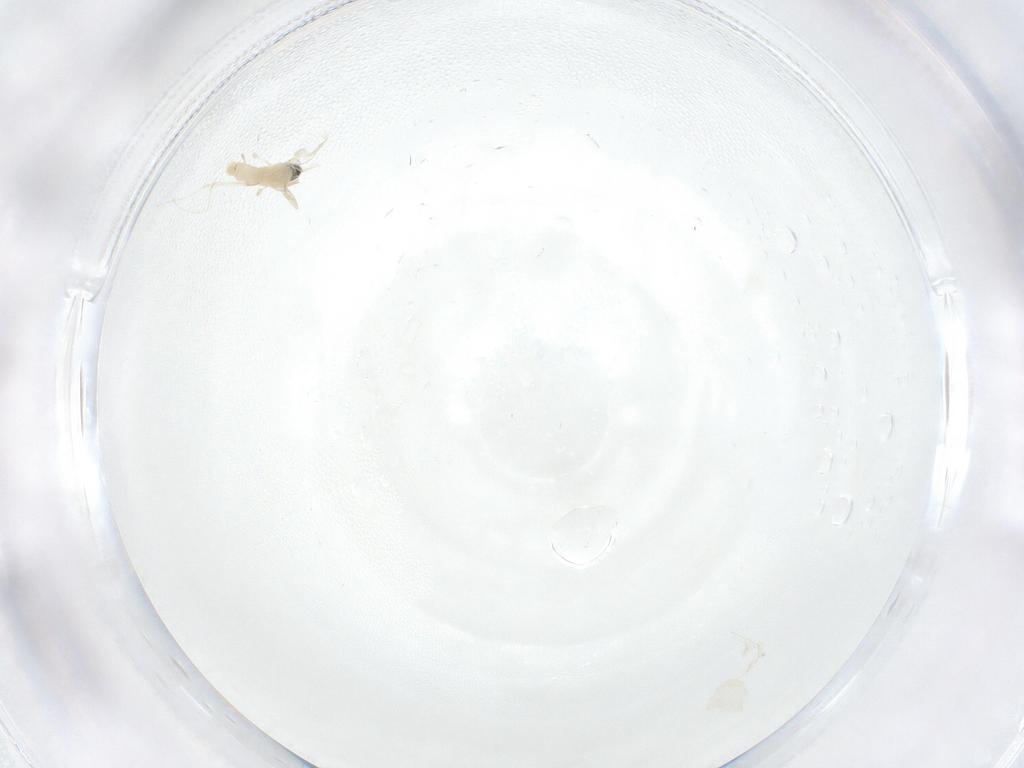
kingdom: Animalia
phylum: Arthropoda
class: Insecta
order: Diptera
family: Cecidomyiidae
